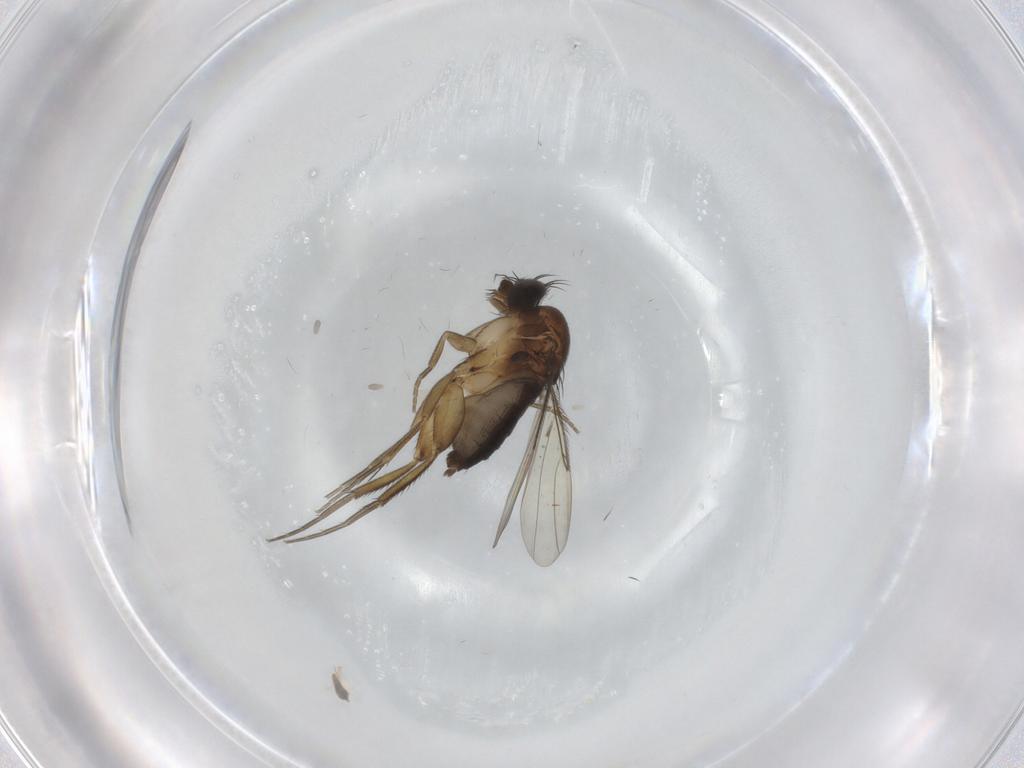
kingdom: Animalia
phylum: Arthropoda
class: Insecta
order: Diptera
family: Phoridae
